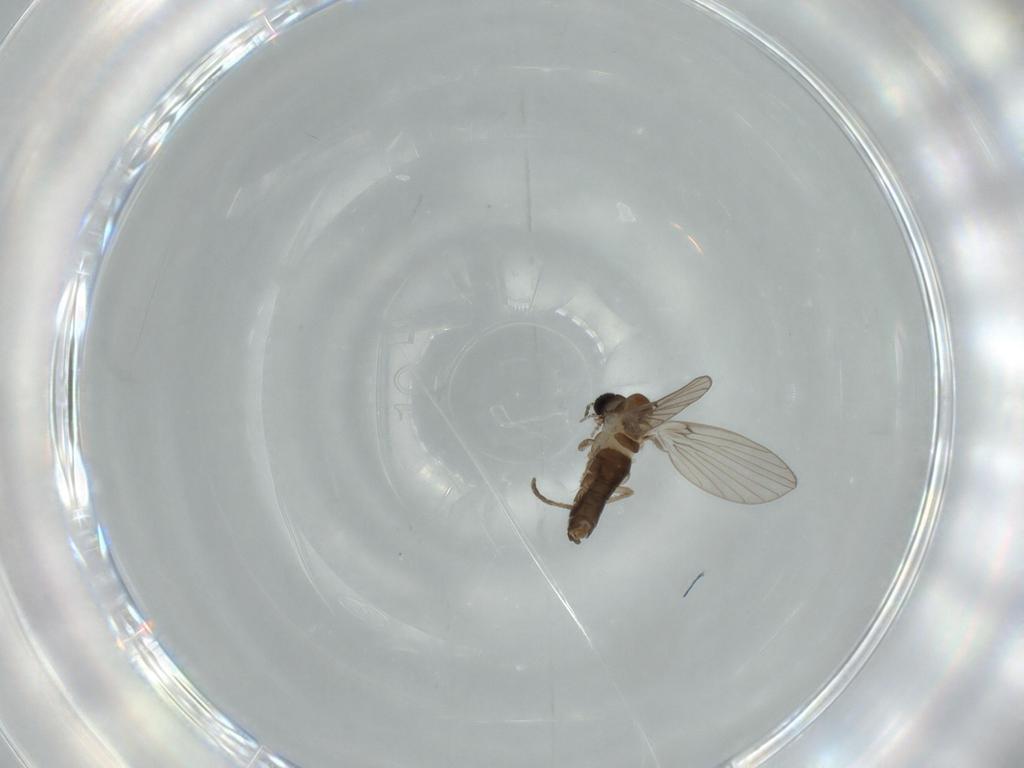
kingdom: Animalia
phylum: Arthropoda
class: Insecta
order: Diptera
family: Psychodidae
